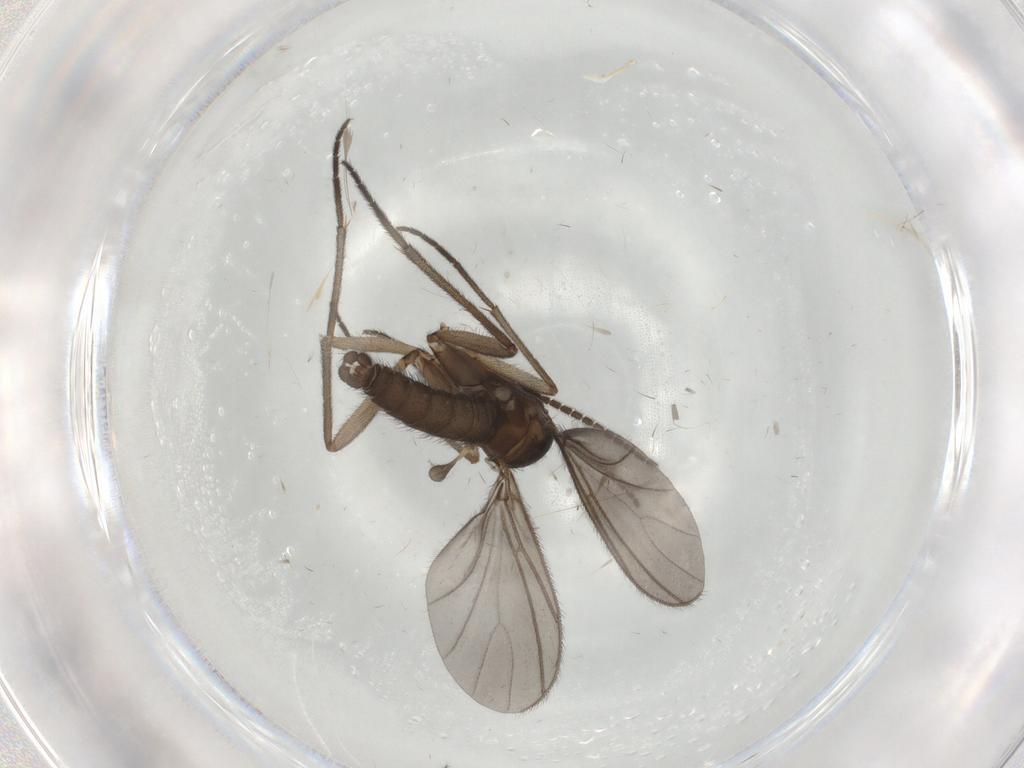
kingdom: Animalia
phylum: Arthropoda
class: Insecta
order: Diptera
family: Sciaridae
